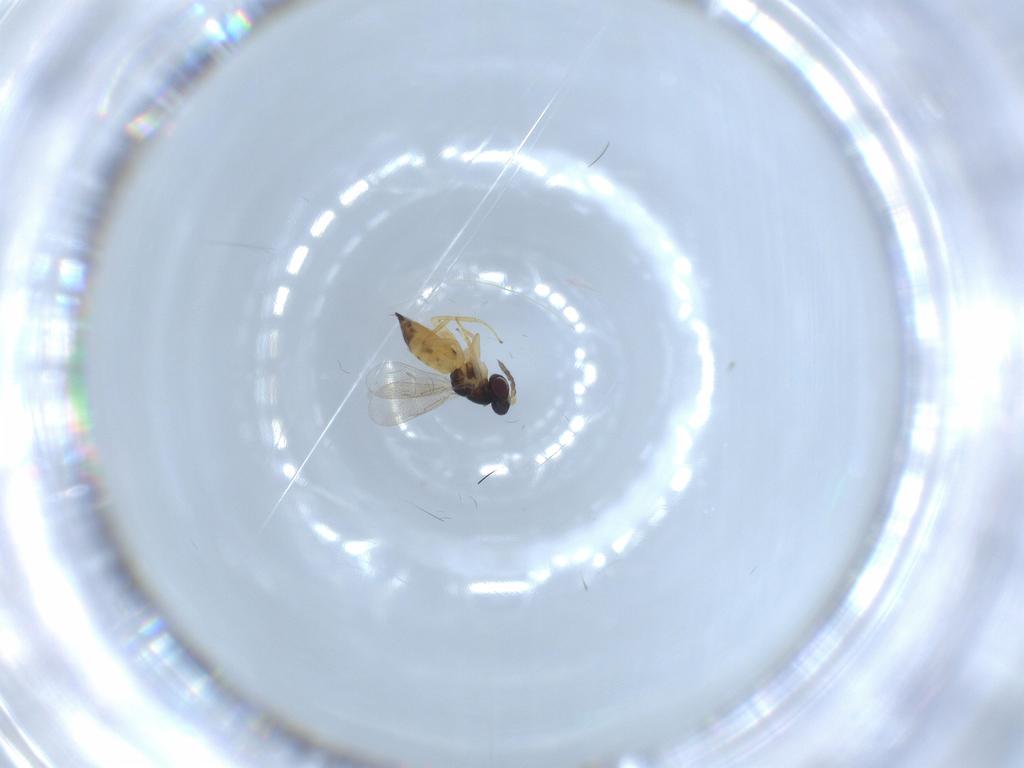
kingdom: Animalia
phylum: Arthropoda
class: Insecta
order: Hymenoptera
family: Eulophidae
